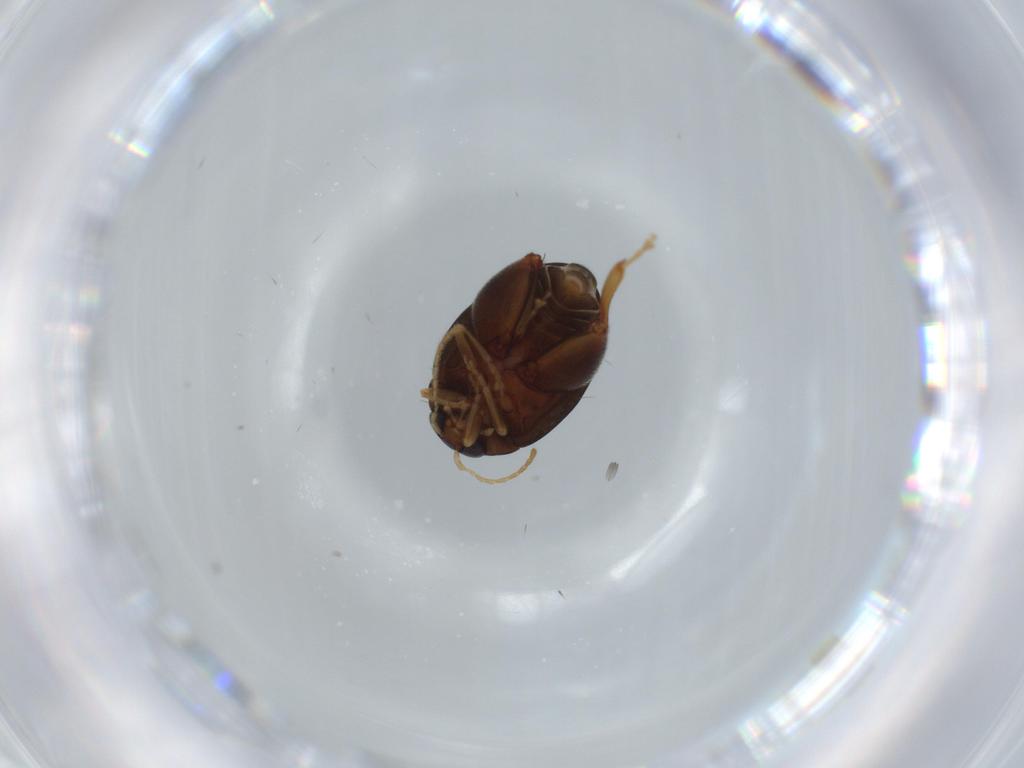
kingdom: Animalia
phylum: Arthropoda
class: Insecta
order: Coleoptera
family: Chrysomelidae
